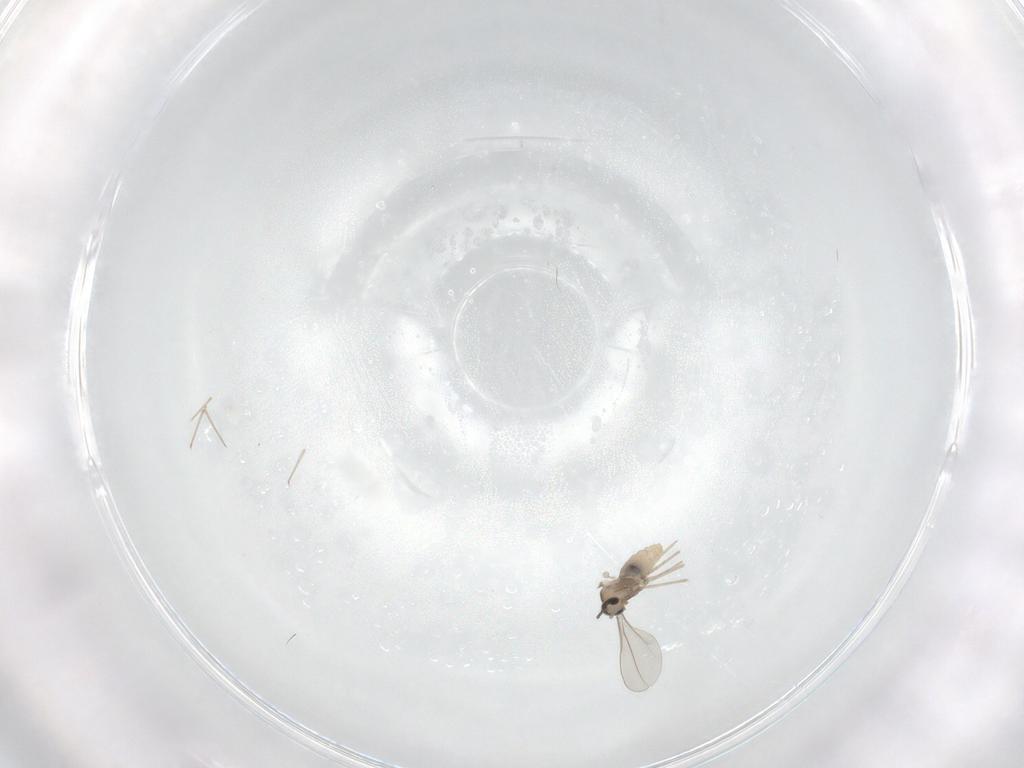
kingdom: Animalia
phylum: Arthropoda
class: Insecta
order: Diptera
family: Cecidomyiidae
